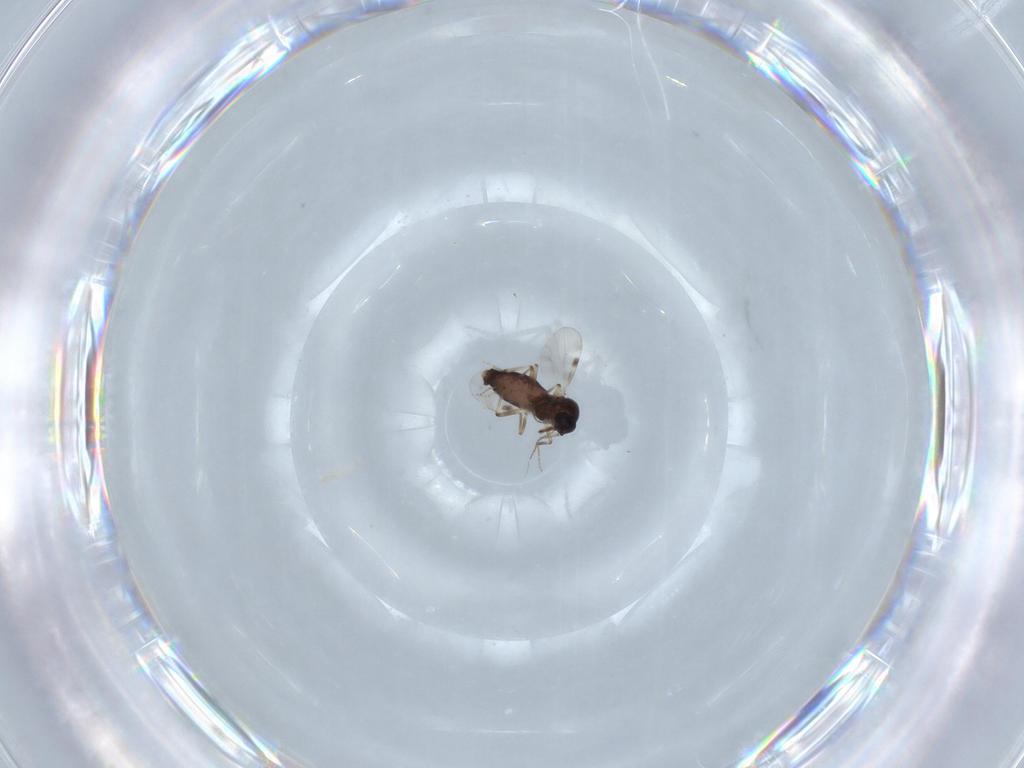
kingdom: Animalia
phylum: Arthropoda
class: Insecta
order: Diptera
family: Dolichopodidae
